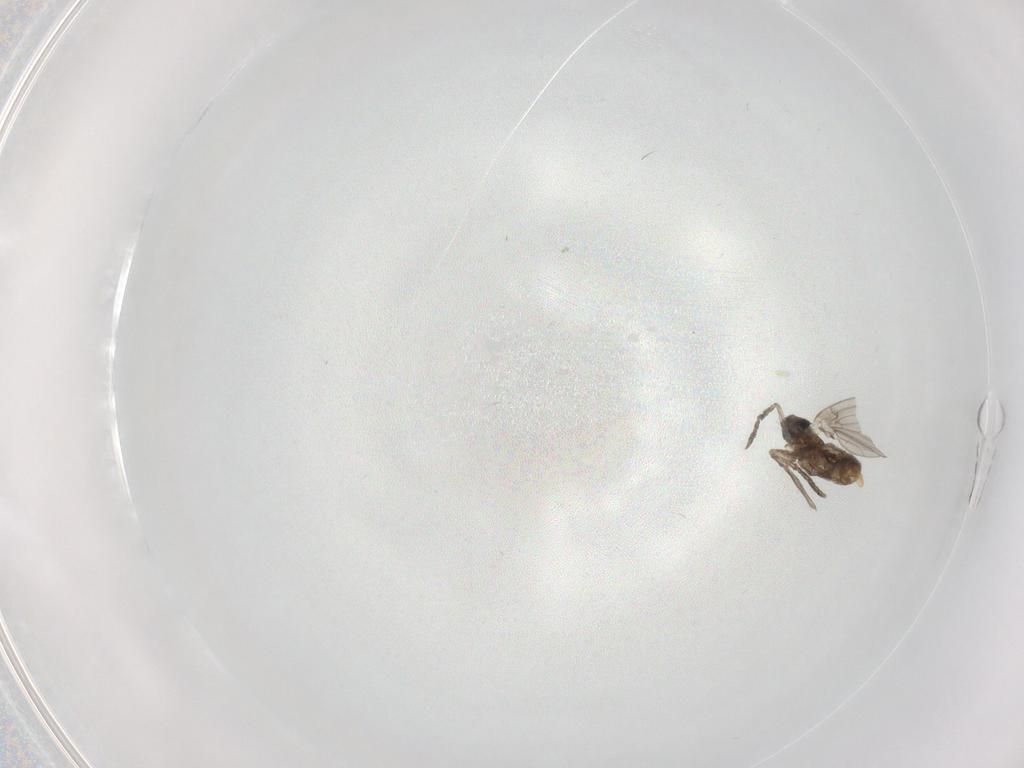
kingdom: Animalia
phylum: Arthropoda
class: Insecta
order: Diptera
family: Psychodidae
